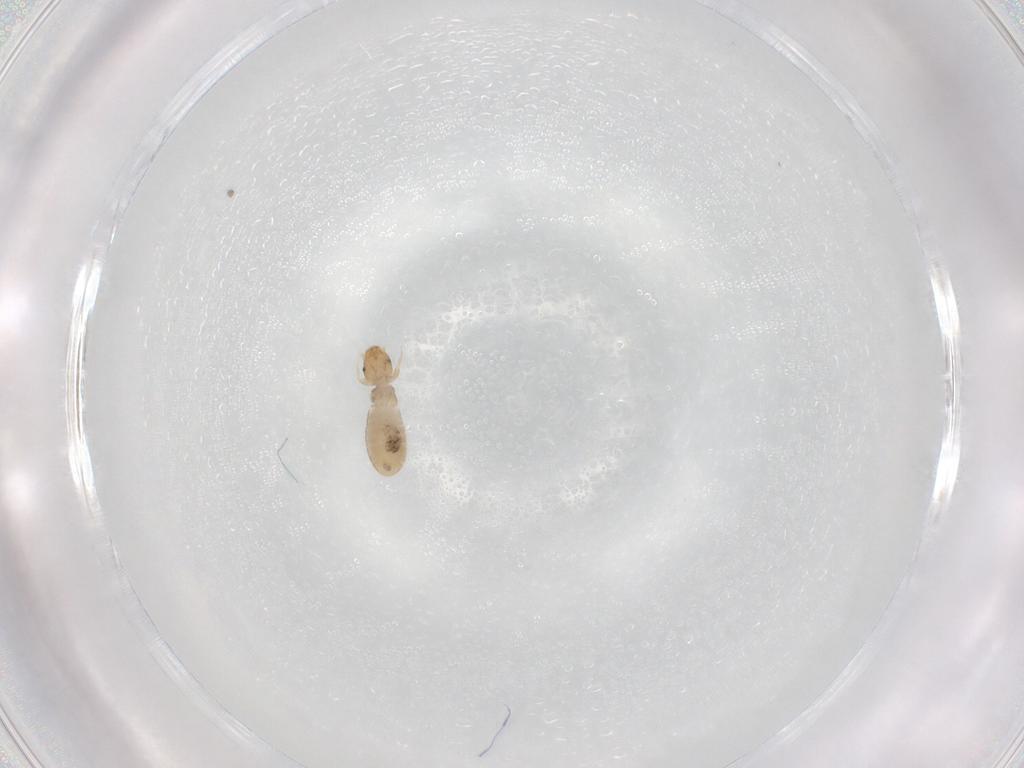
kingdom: Animalia
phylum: Arthropoda
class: Insecta
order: Psocodea
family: Liposcelididae
